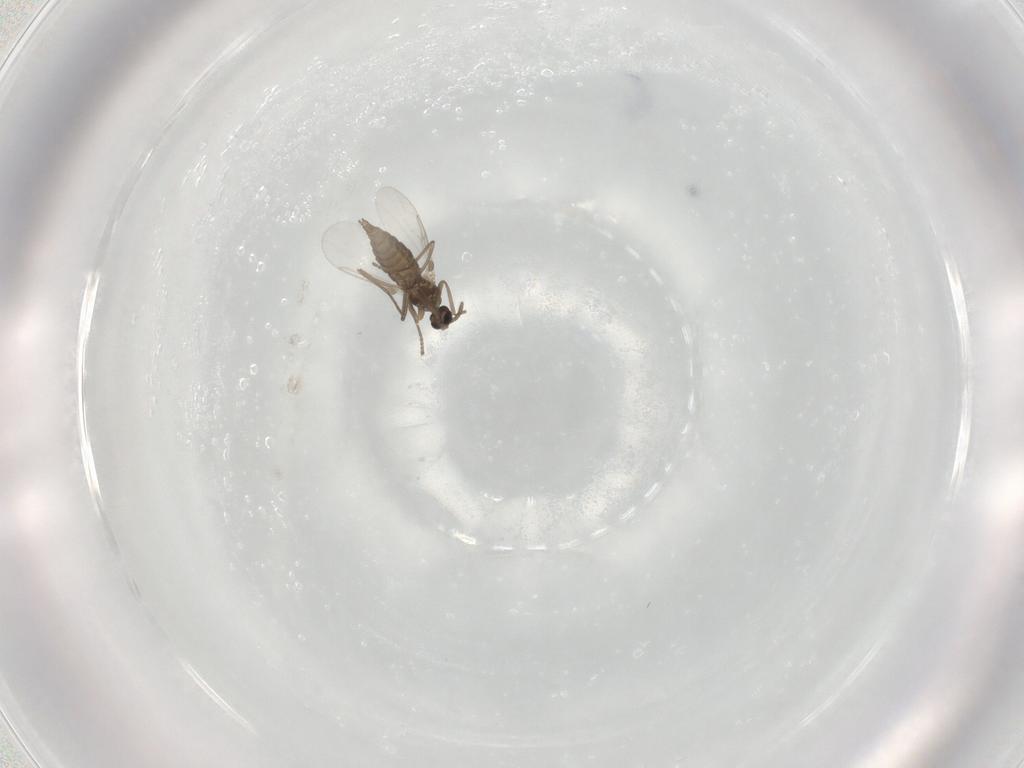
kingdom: Animalia
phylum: Arthropoda
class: Insecta
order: Diptera
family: Cecidomyiidae
